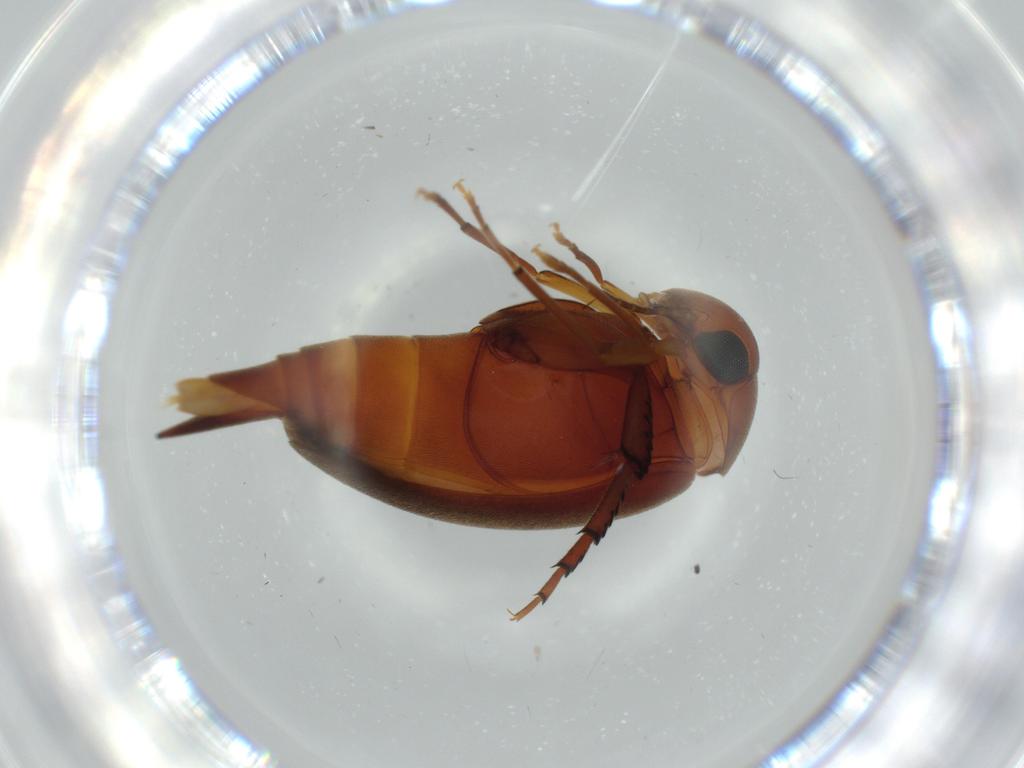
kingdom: Animalia
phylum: Arthropoda
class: Insecta
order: Coleoptera
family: Mordellidae
